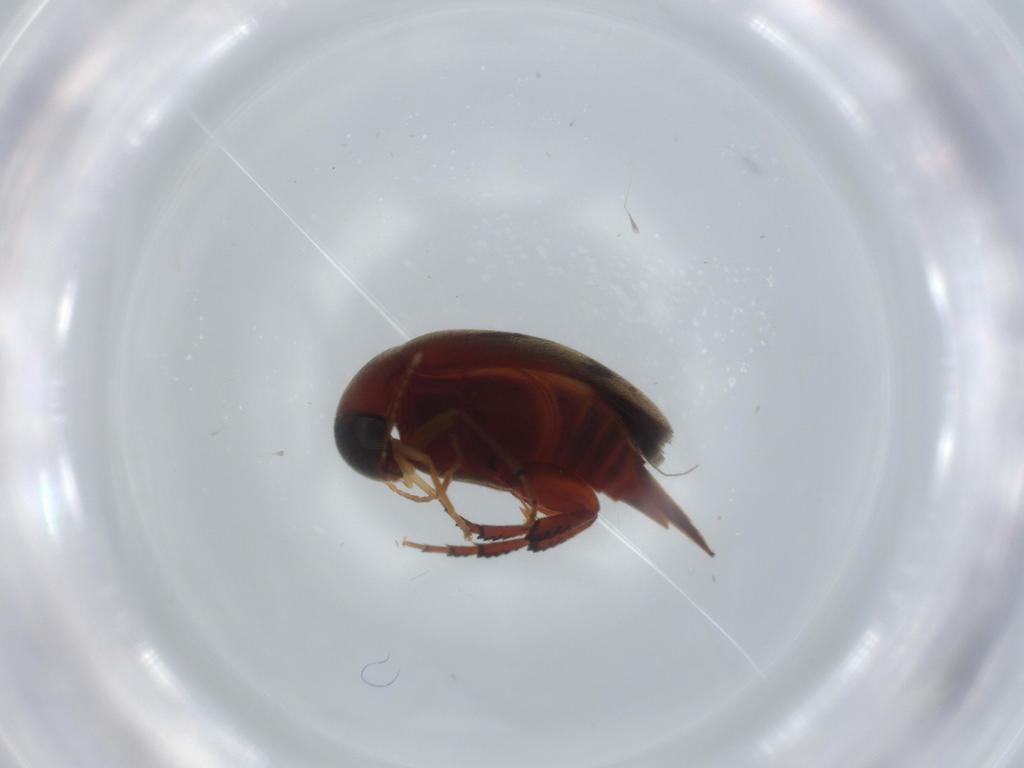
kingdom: Animalia
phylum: Arthropoda
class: Insecta
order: Coleoptera
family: Mordellidae
